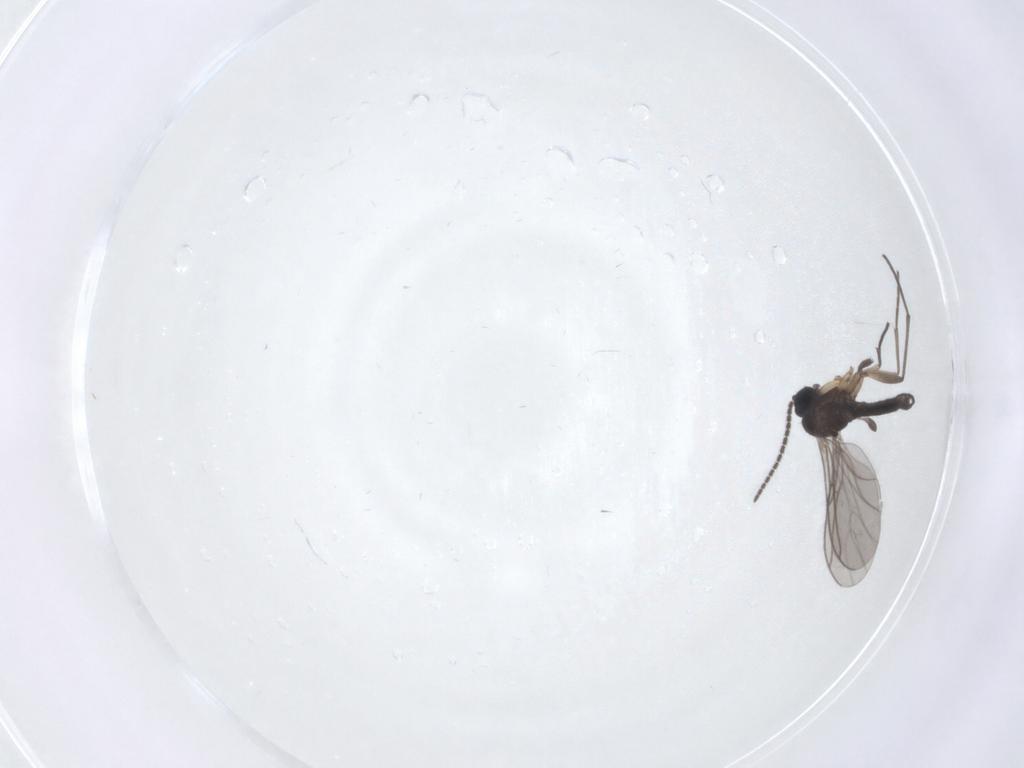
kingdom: Animalia
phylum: Arthropoda
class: Insecta
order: Diptera
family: Sciaridae
